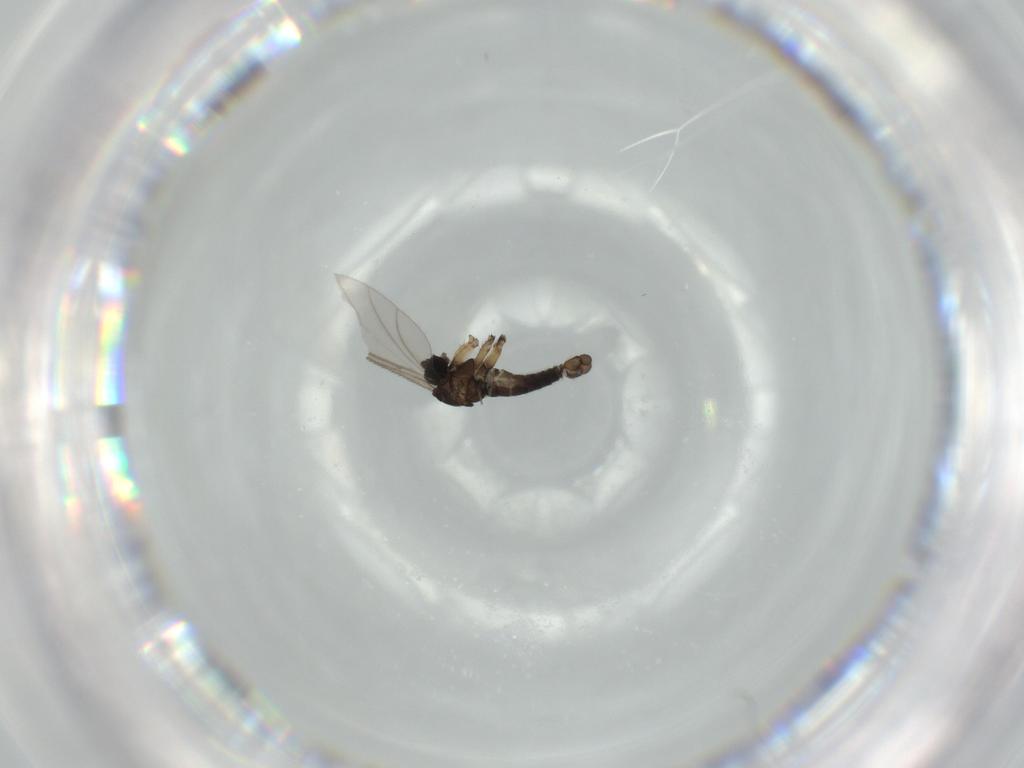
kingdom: Animalia
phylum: Arthropoda
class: Insecta
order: Diptera
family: Sciaridae
